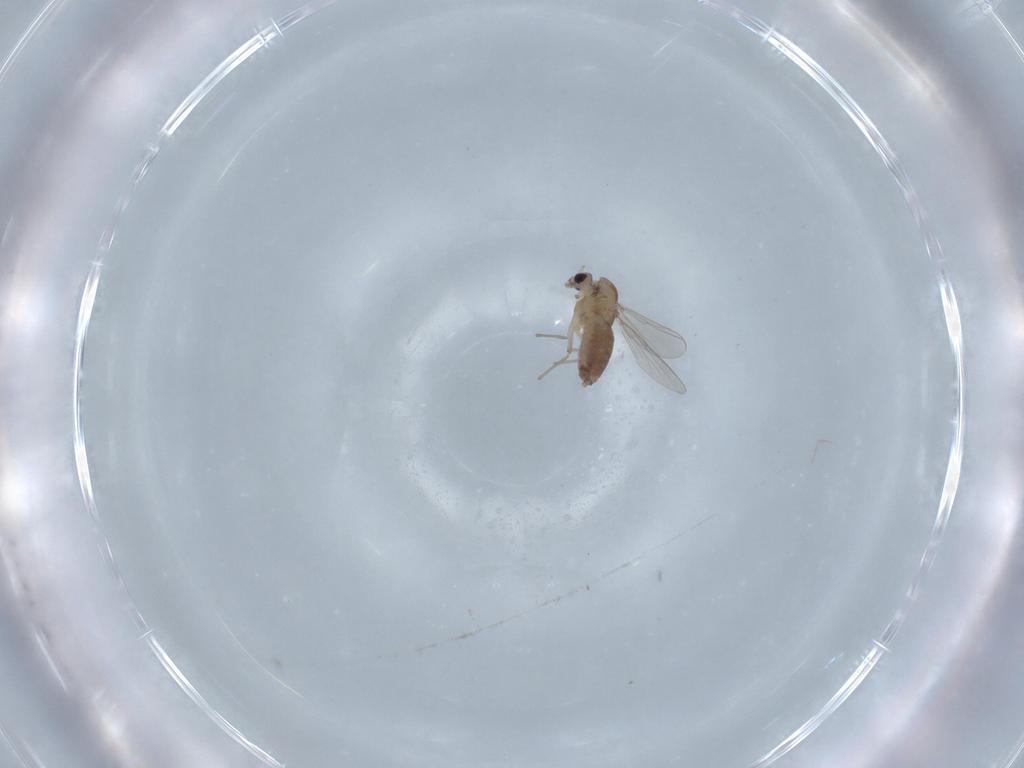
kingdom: Animalia
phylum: Arthropoda
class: Insecta
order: Diptera
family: Chironomidae
